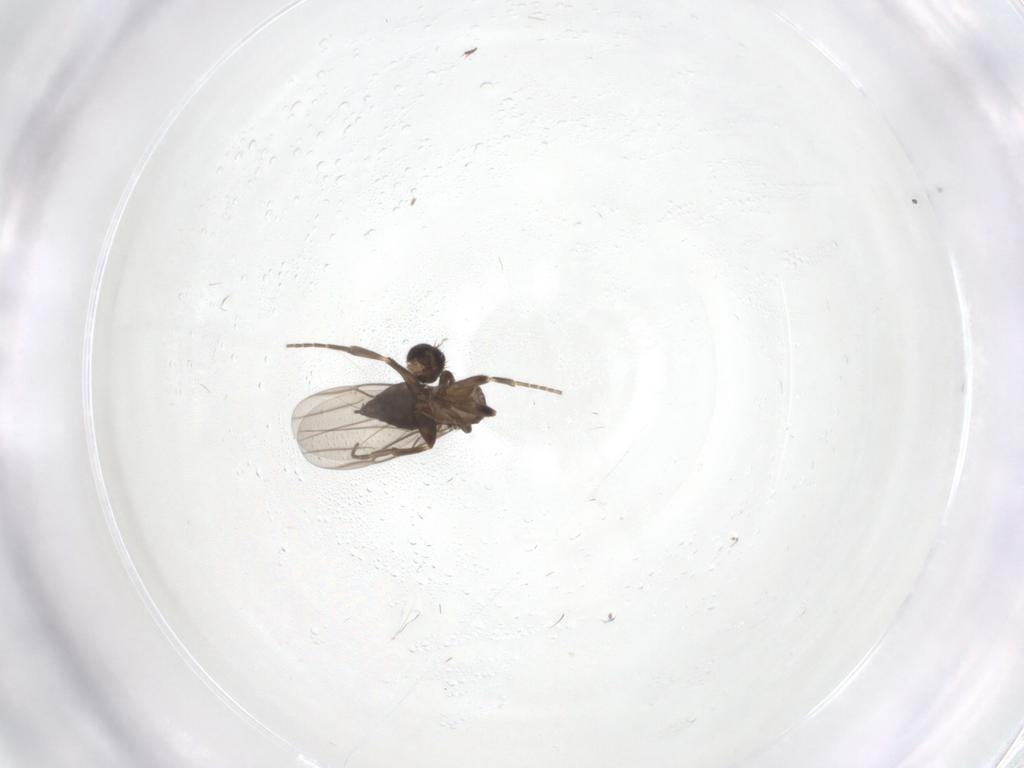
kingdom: Animalia
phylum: Arthropoda
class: Insecta
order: Diptera
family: Phoridae
